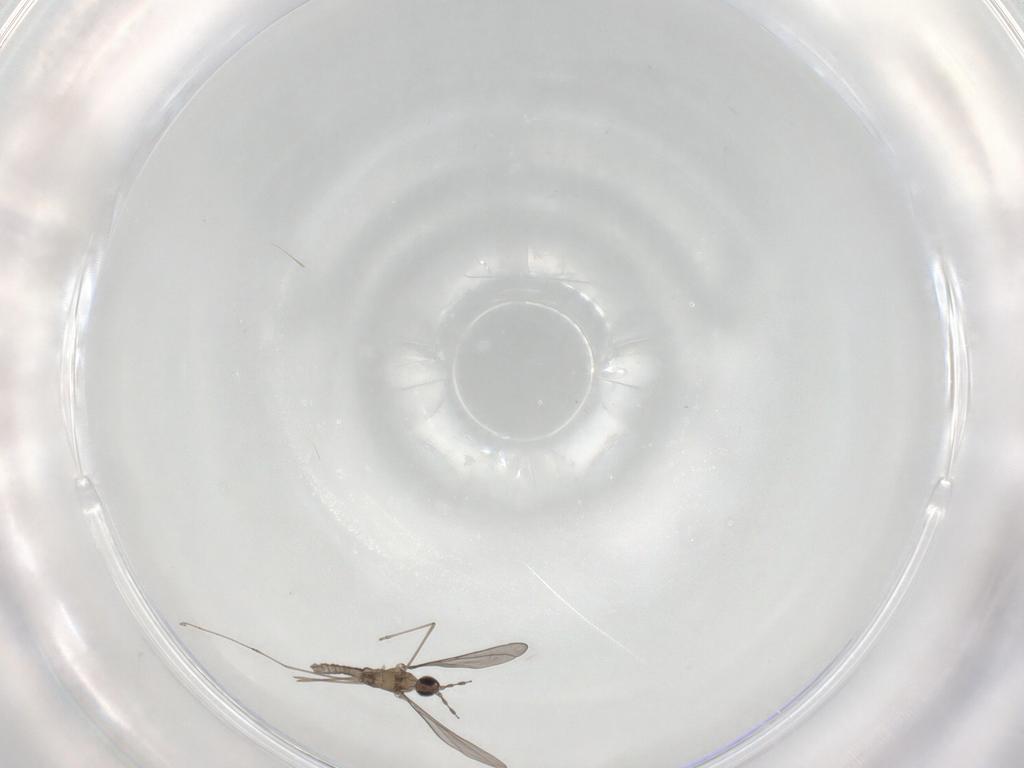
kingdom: Animalia
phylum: Arthropoda
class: Insecta
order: Diptera
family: Cecidomyiidae
